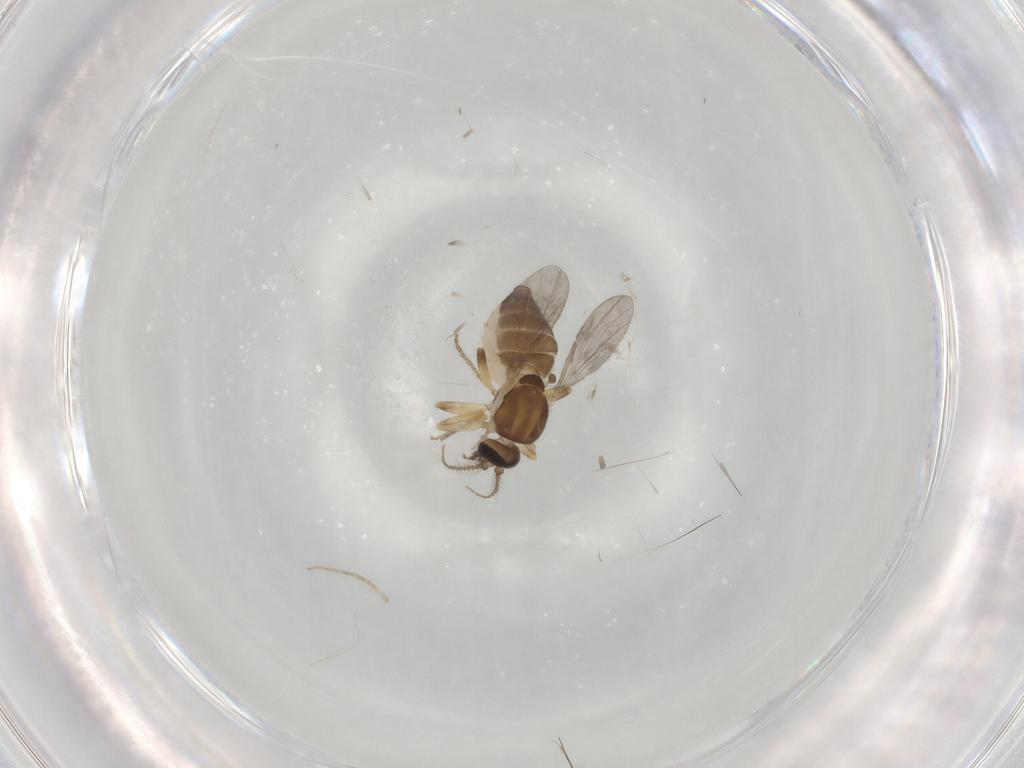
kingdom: Animalia
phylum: Arthropoda
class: Insecta
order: Diptera
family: Ceratopogonidae
